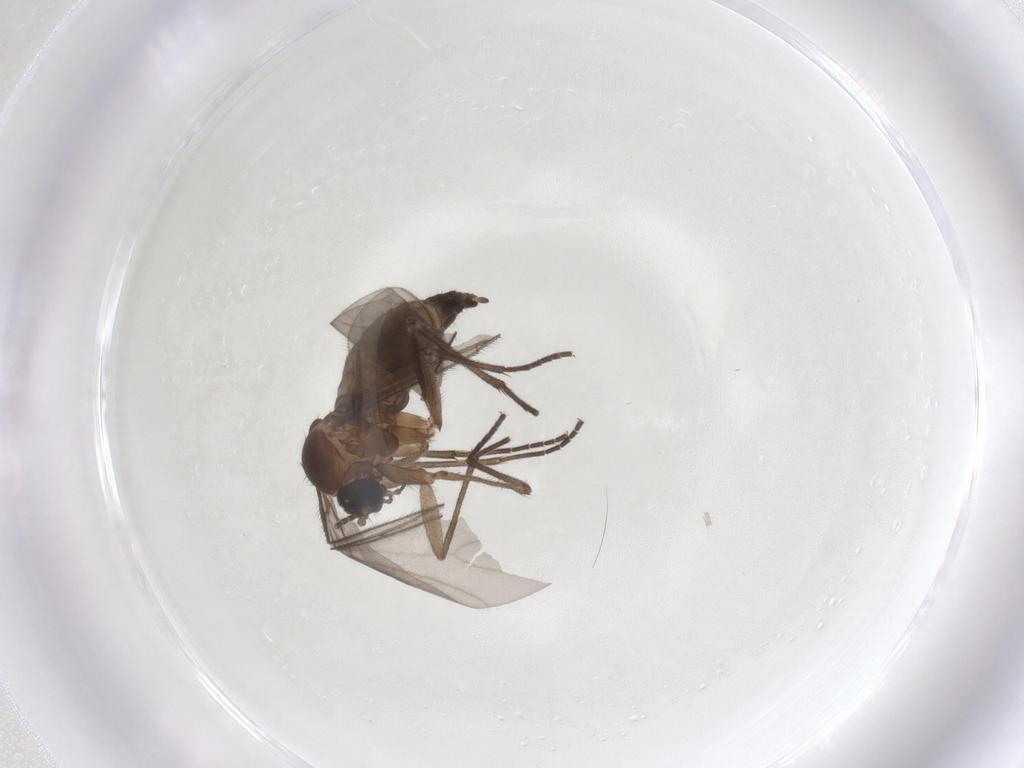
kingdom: Animalia
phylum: Arthropoda
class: Insecta
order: Diptera
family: Sciaridae
